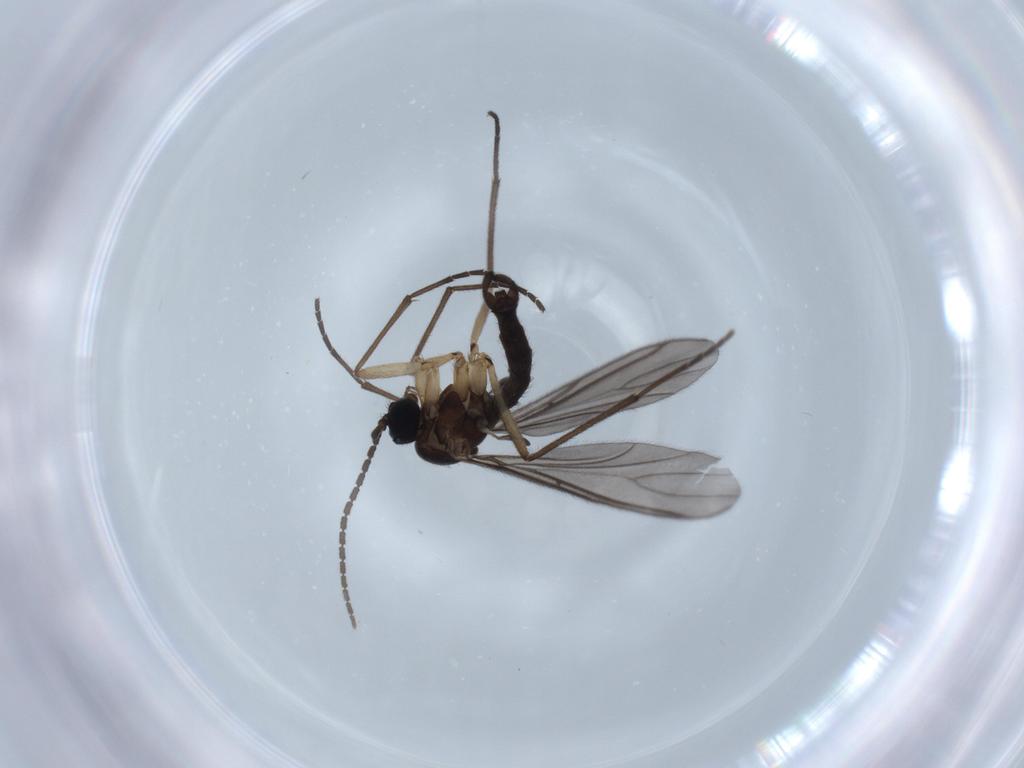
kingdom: Animalia
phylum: Arthropoda
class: Insecta
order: Diptera
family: Sciaridae
